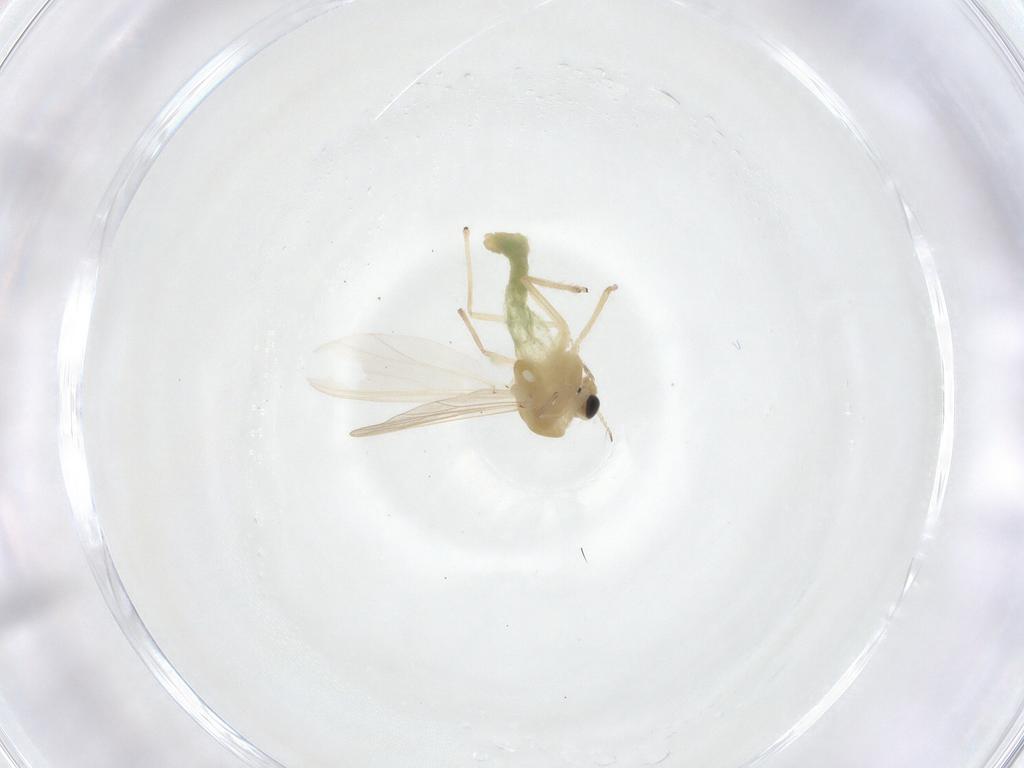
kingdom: Animalia
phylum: Arthropoda
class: Insecta
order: Diptera
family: Chironomidae
